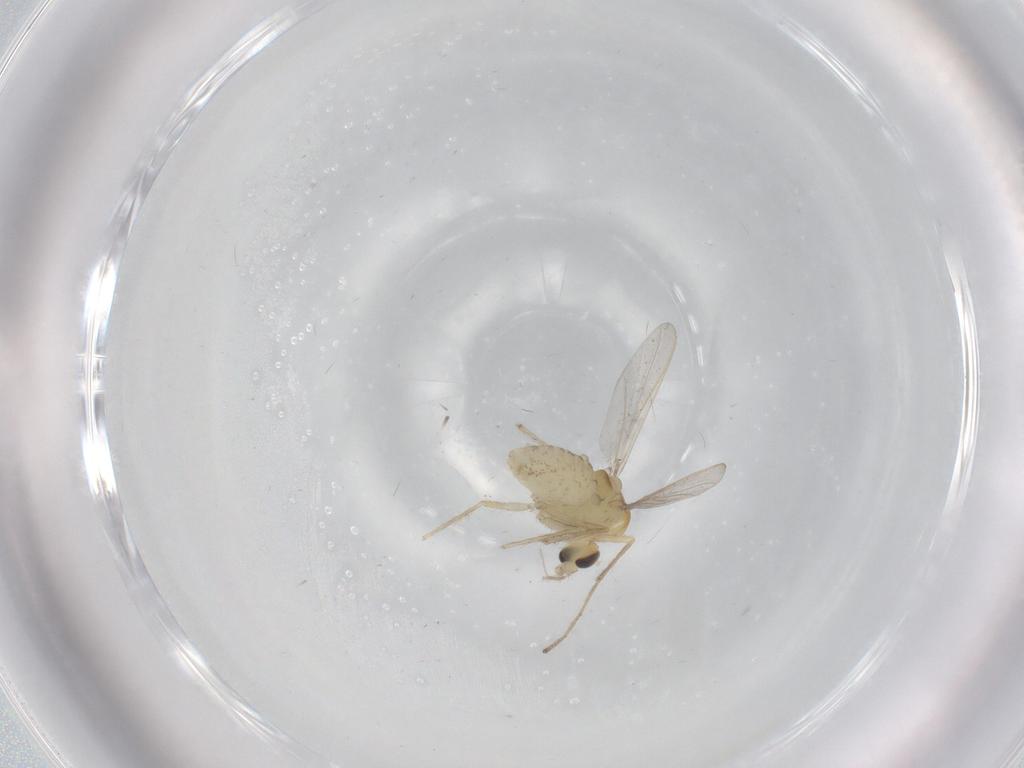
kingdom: Animalia
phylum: Arthropoda
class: Insecta
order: Diptera
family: Chironomidae
